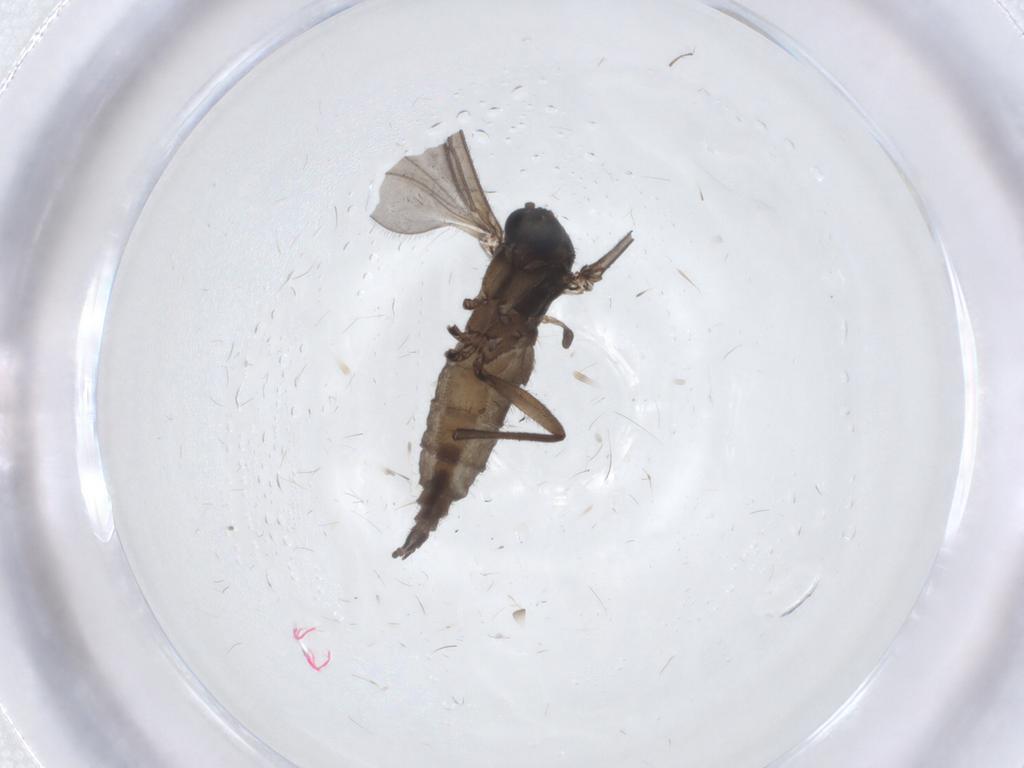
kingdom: Animalia
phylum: Arthropoda
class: Insecta
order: Diptera
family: Sciaridae
